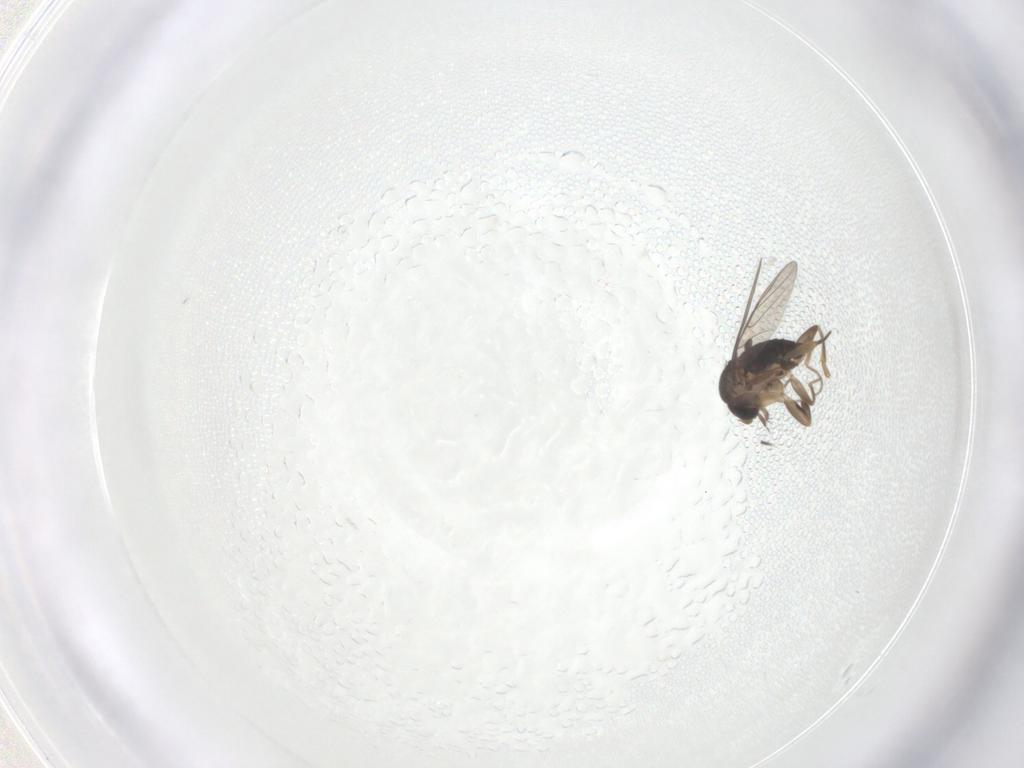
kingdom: Animalia
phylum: Arthropoda
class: Insecta
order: Diptera
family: Phoridae
